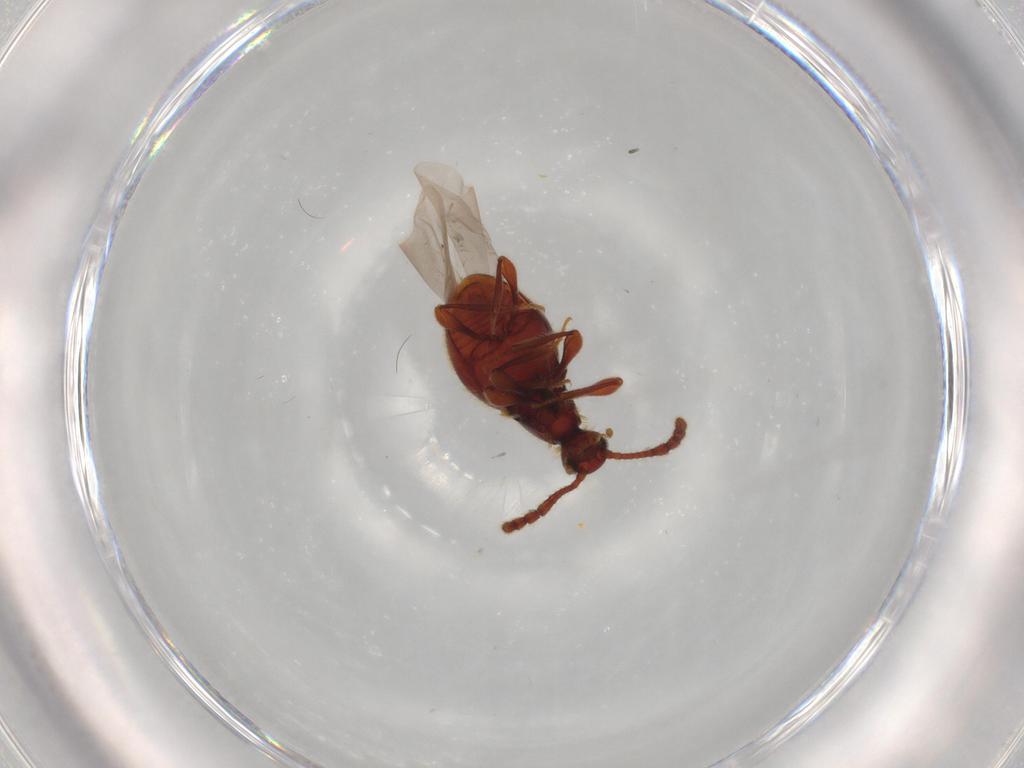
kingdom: Animalia
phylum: Arthropoda
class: Insecta
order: Coleoptera
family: Staphylinidae
